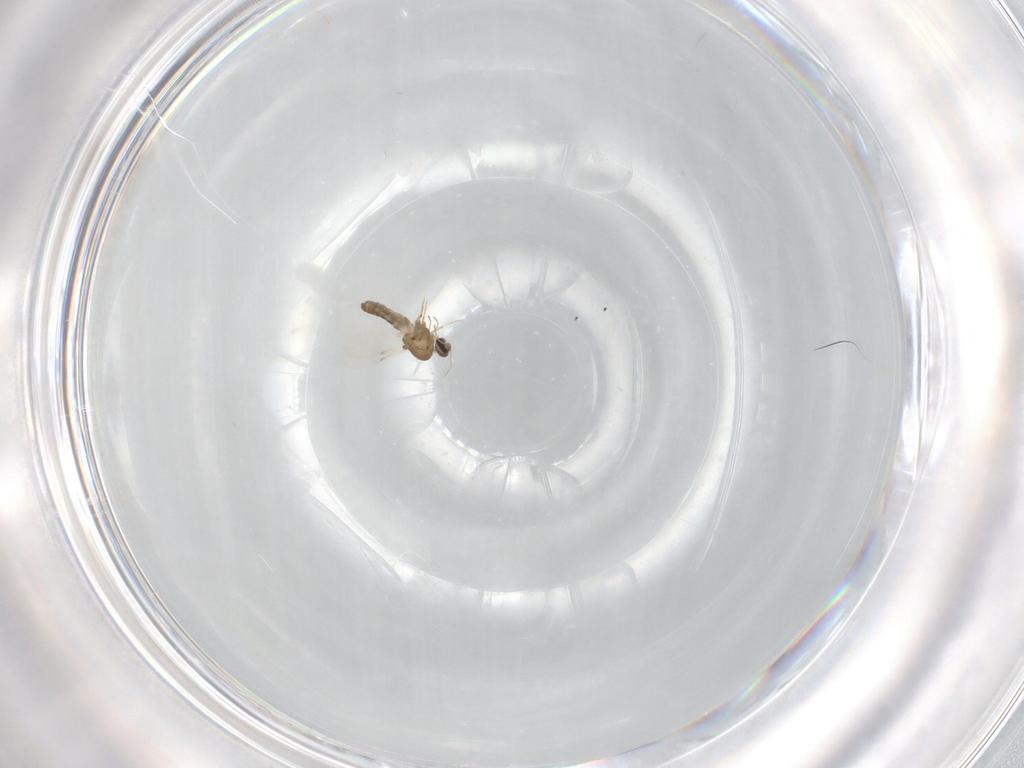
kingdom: Animalia
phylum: Arthropoda
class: Insecta
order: Diptera
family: Ceratopogonidae
